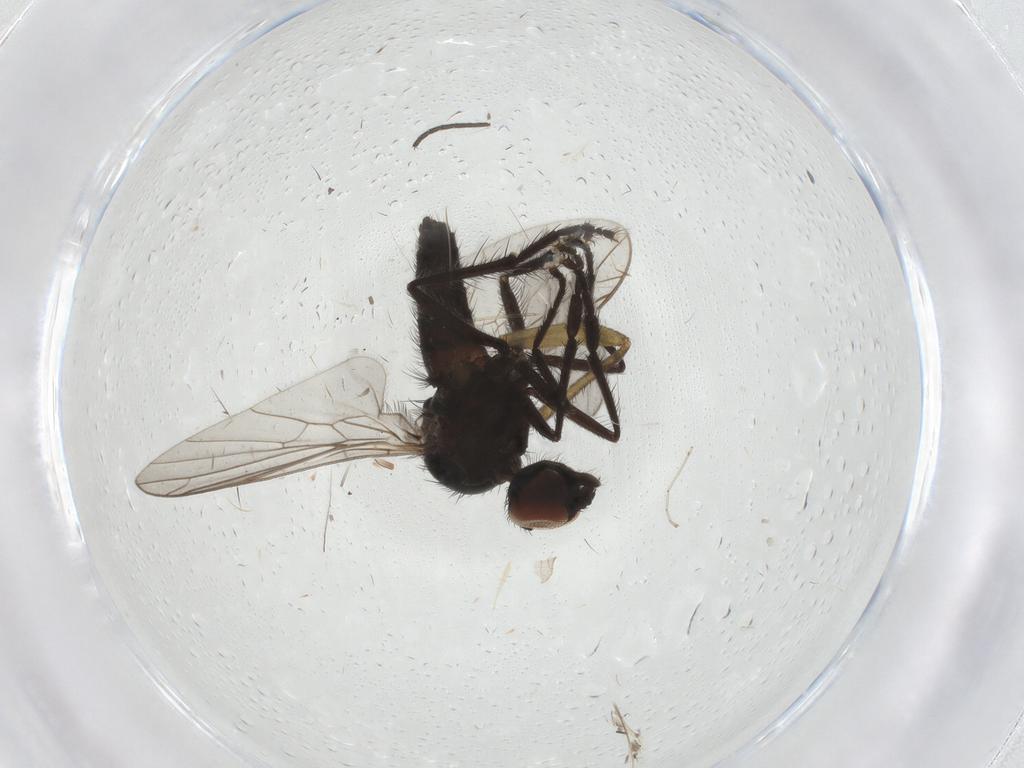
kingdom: Animalia
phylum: Arthropoda
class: Insecta
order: Diptera
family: Empididae
